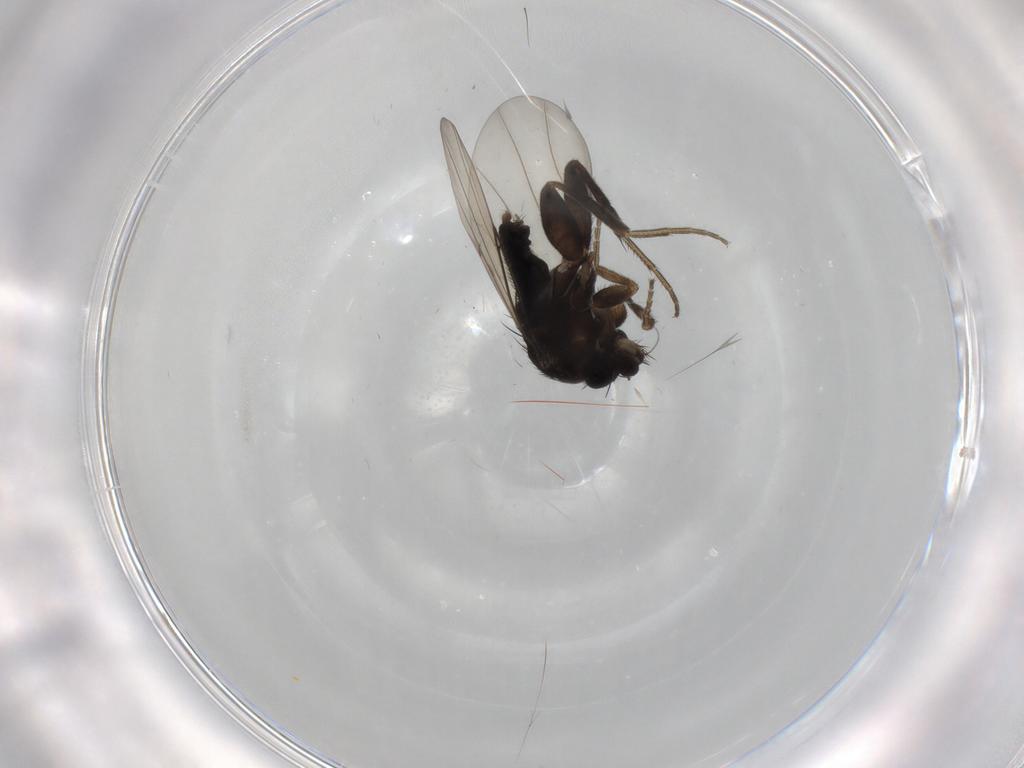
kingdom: Animalia
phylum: Arthropoda
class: Insecta
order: Diptera
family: Phoridae
